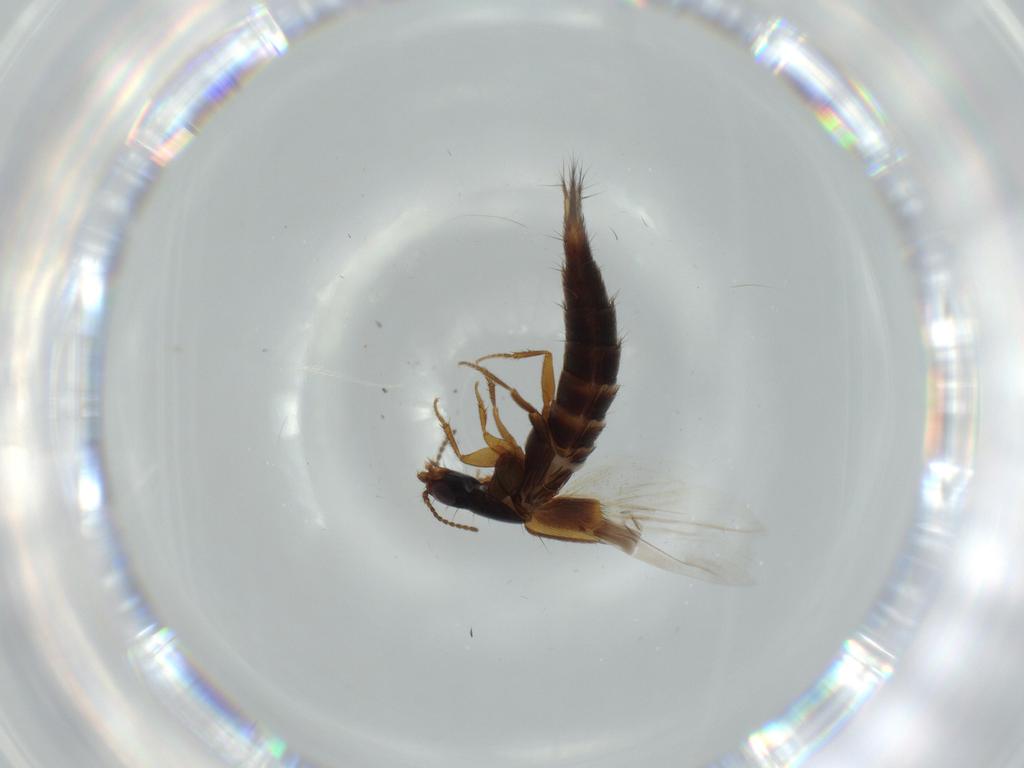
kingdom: Animalia
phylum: Arthropoda
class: Insecta
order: Coleoptera
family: Staphylinidae
